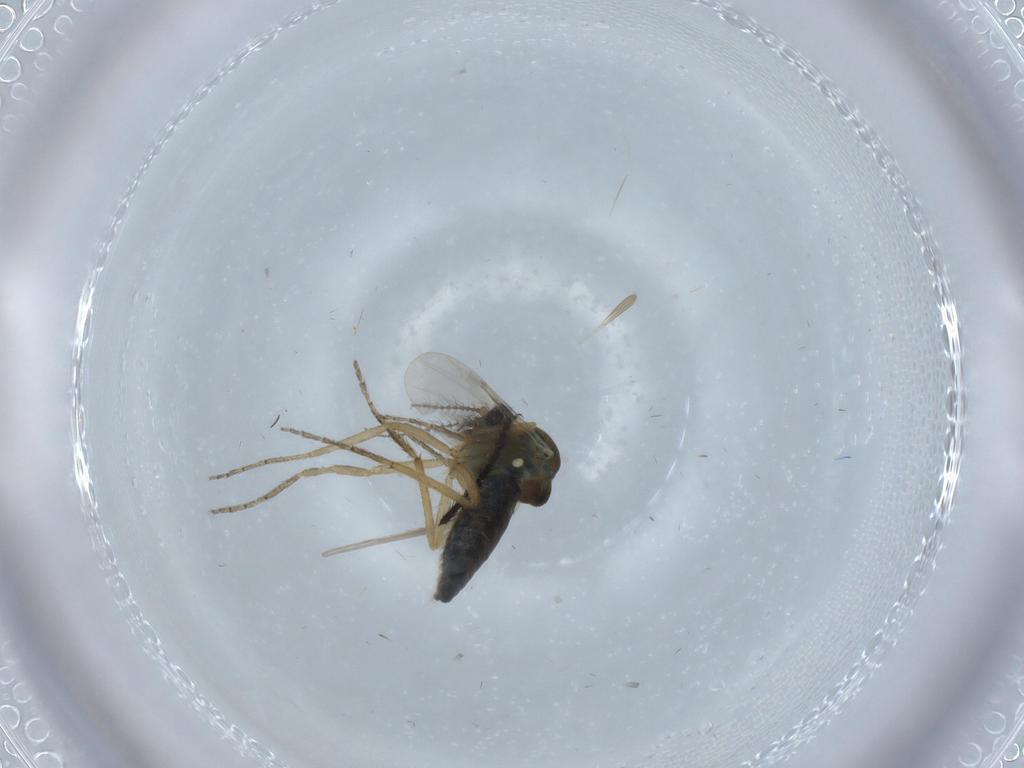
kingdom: Animalia
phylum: Arthropoda
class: Insecta
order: Diptera
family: Ceratopogonidae
